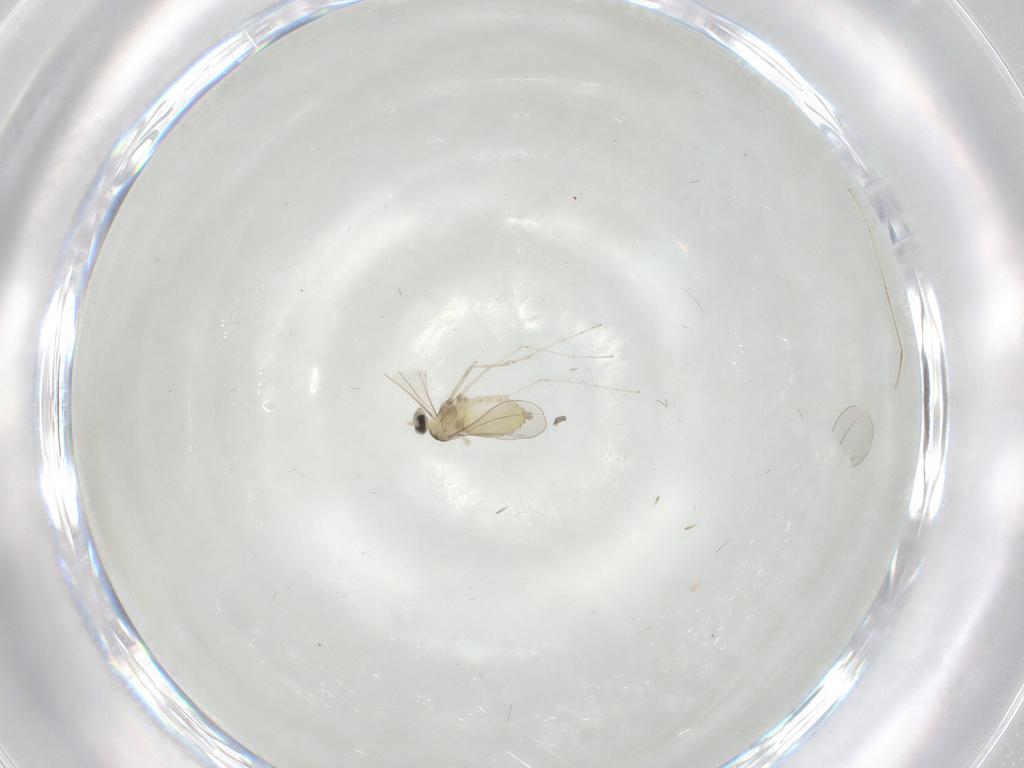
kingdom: Animalia
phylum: Arthropoda
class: Insecta
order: Diptera
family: Cecidomyiidae
